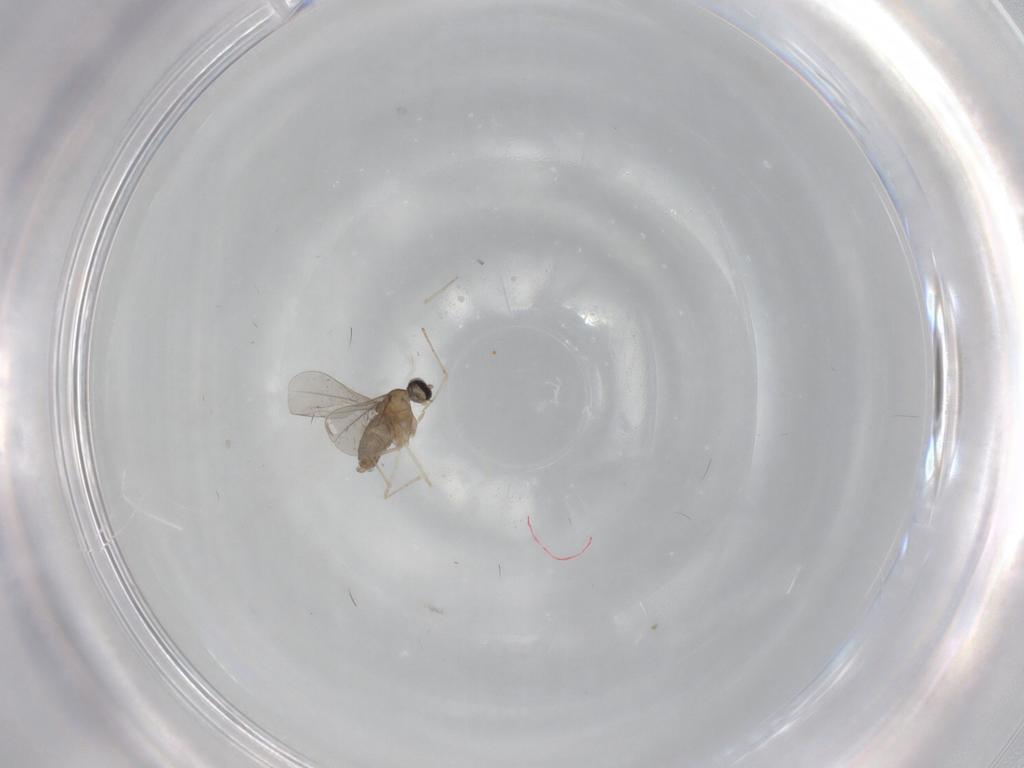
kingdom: Animalia
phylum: Arthropoda
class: Insecta
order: Diptera
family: Cecidomyiidae
